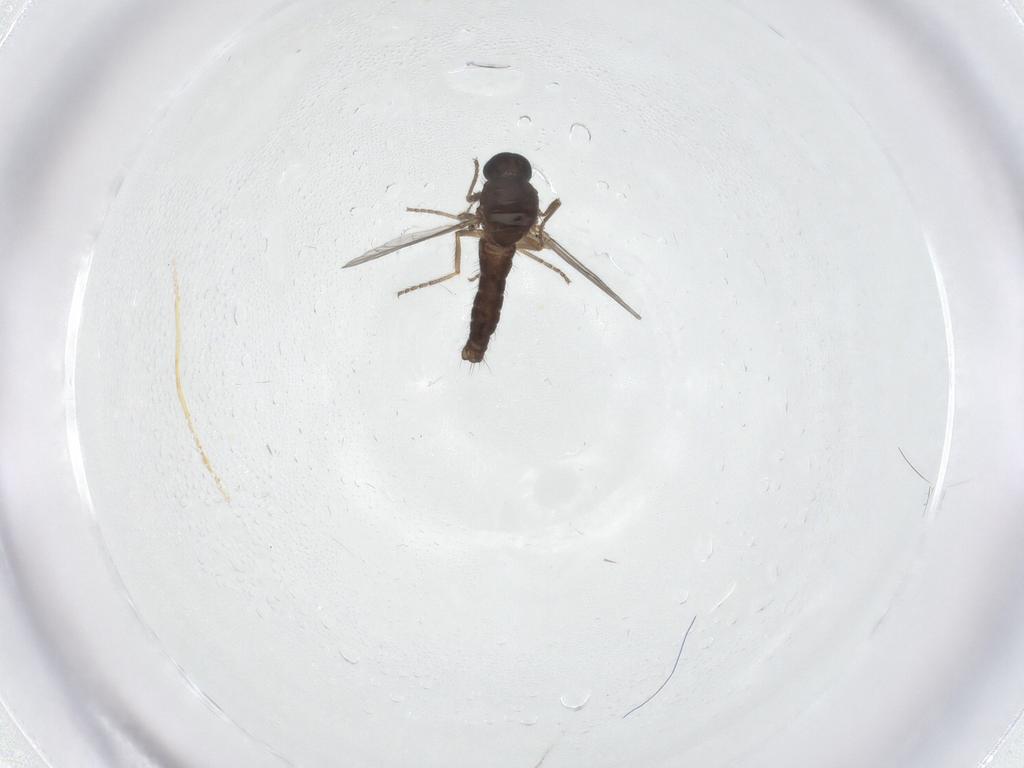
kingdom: Animalia
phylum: Arthropoda
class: Insecta
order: Diptera
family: Ceratopogonidae
